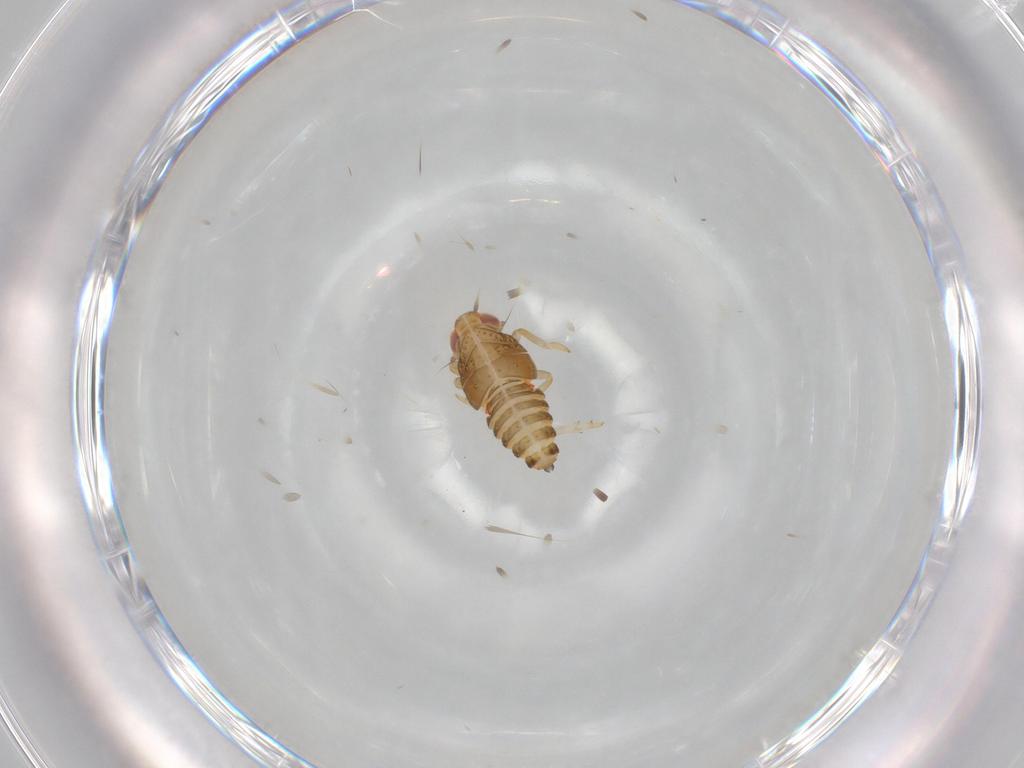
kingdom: Animalia
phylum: Arthropoda
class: Insecta
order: Hemiptera
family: Issidae
